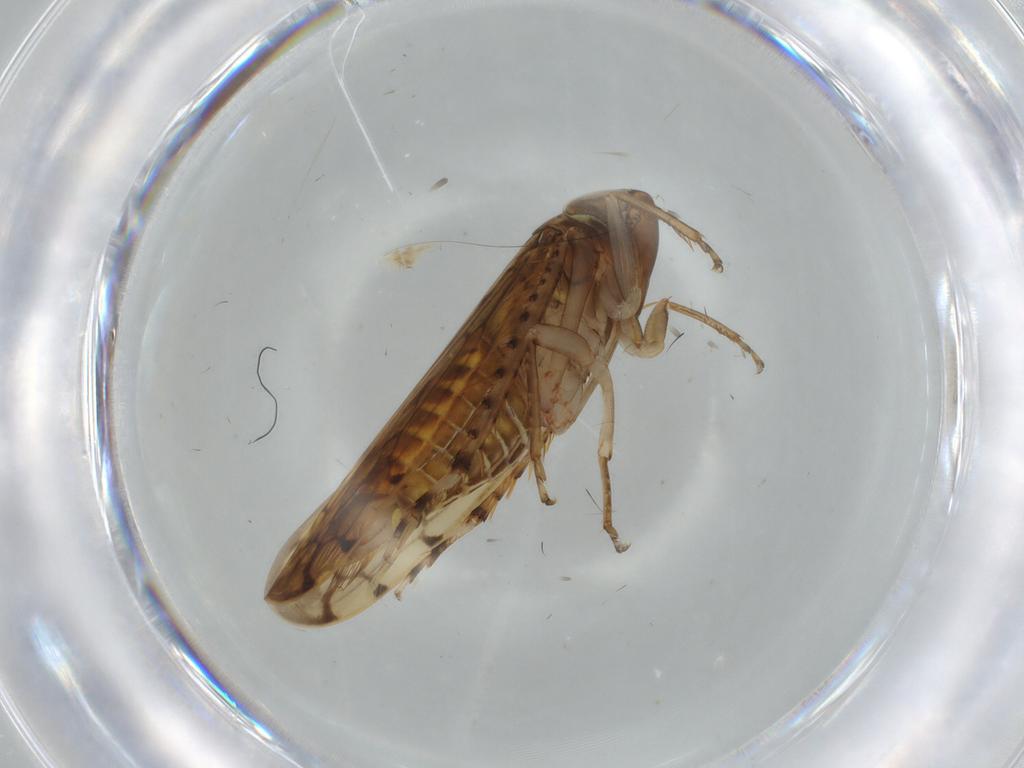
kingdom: Animalia
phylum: Arthropoda
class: Insecta
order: Hemiptera
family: Cicadellidae
